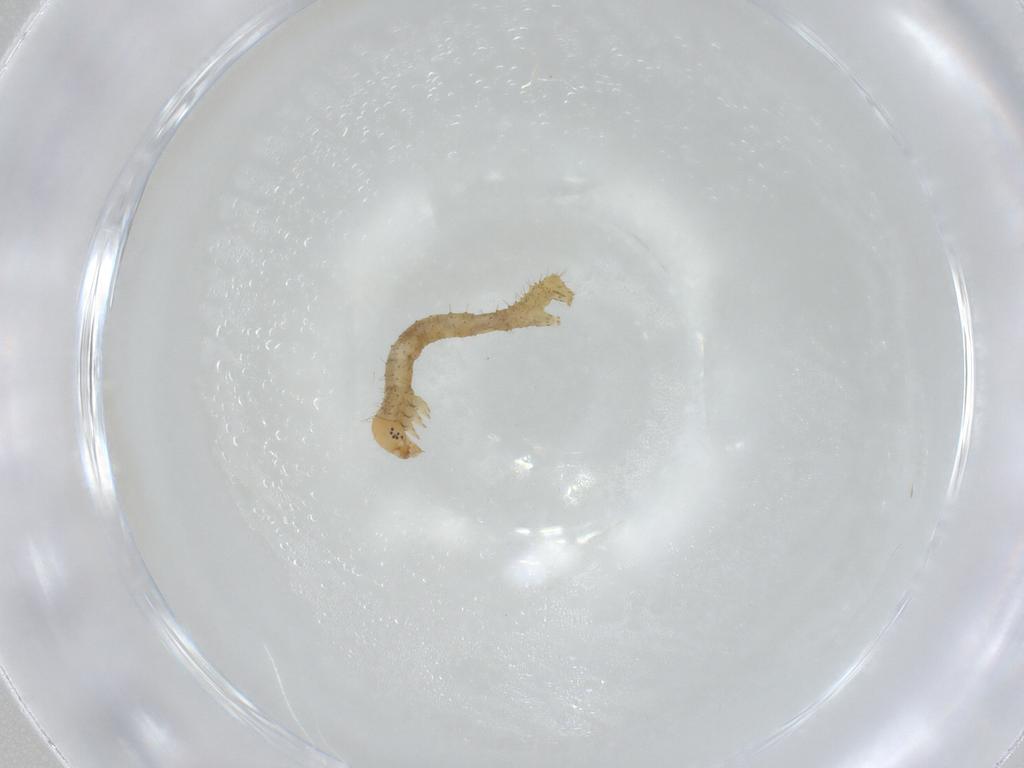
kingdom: Animalia
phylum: Arthropoda
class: Insecta
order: Lepidoptera
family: Geometridae
